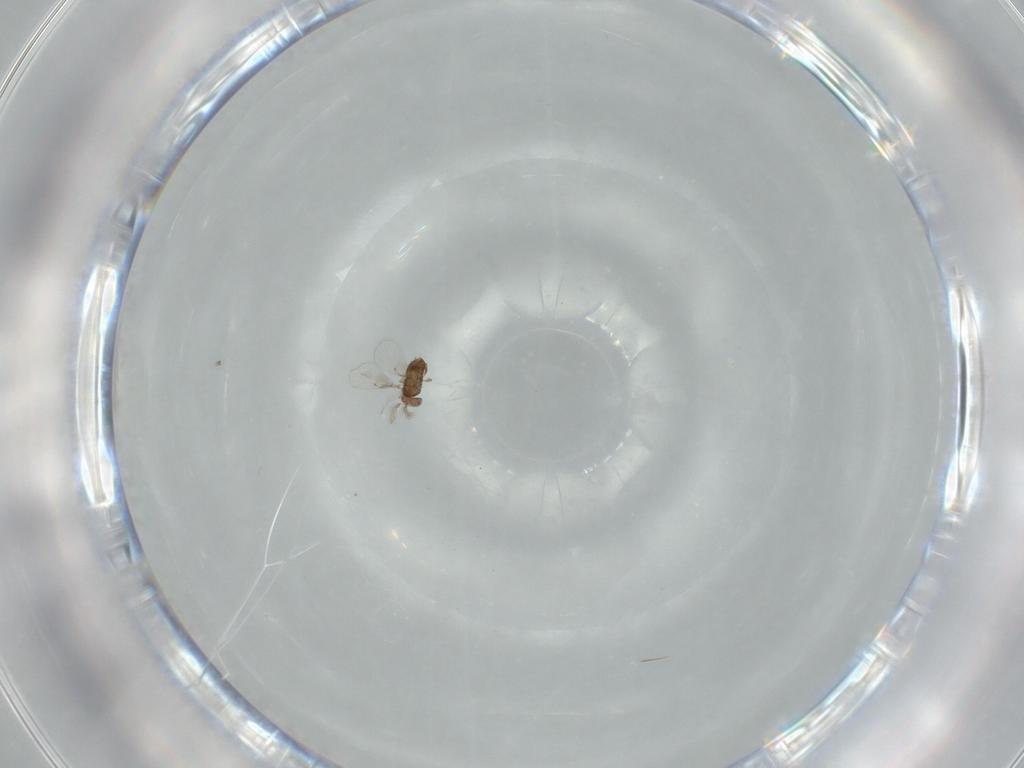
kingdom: Animalia
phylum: Arthropoda
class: Insecta
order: Hymenoptera
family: Trichogrammatidae
